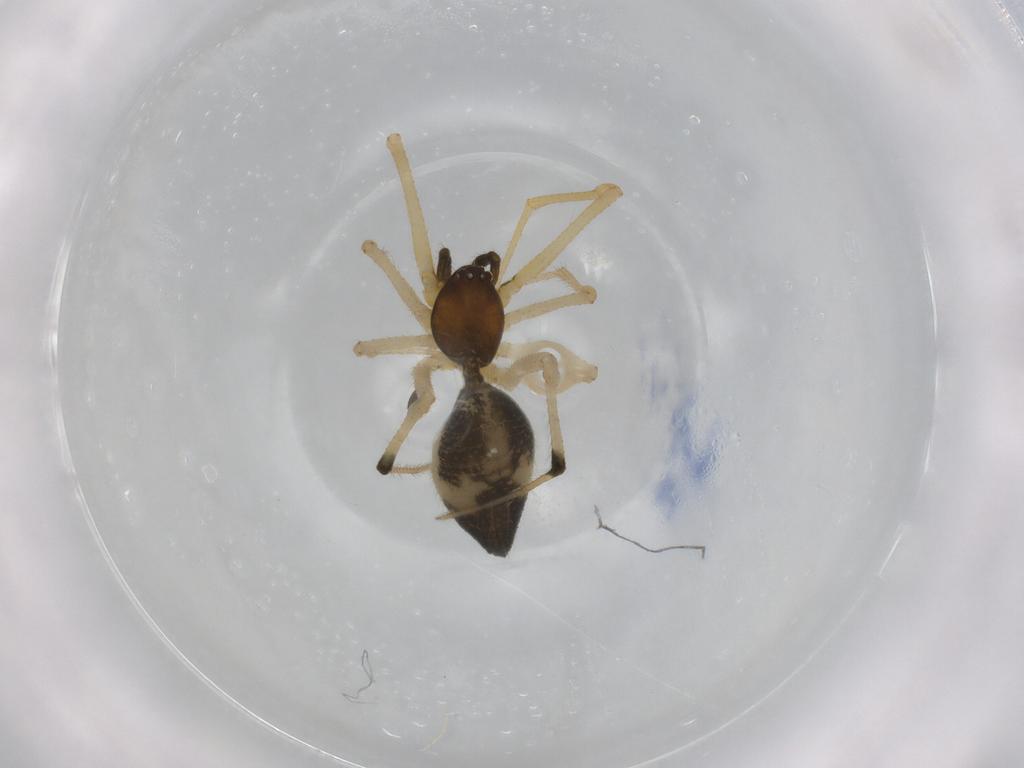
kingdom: Animalia
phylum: Arthropoda
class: Arachnida
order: Araneae
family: Theridiidae
